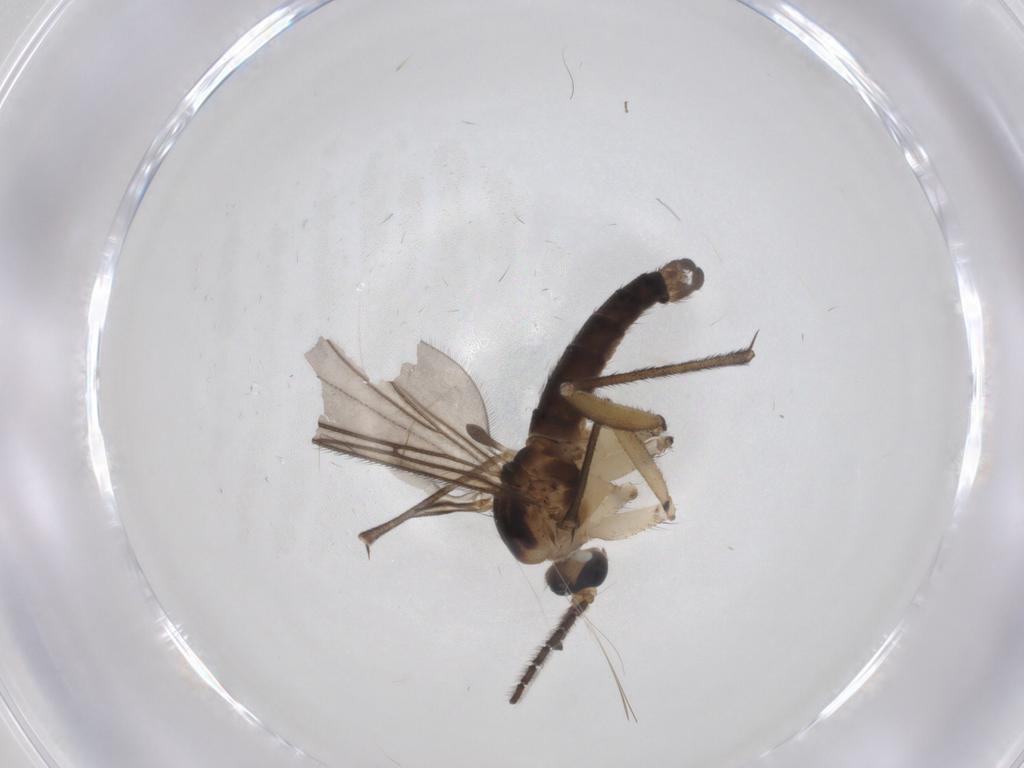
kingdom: Animalia
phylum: Arthropoda
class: Insecta
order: Diptera
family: Sciaridae
